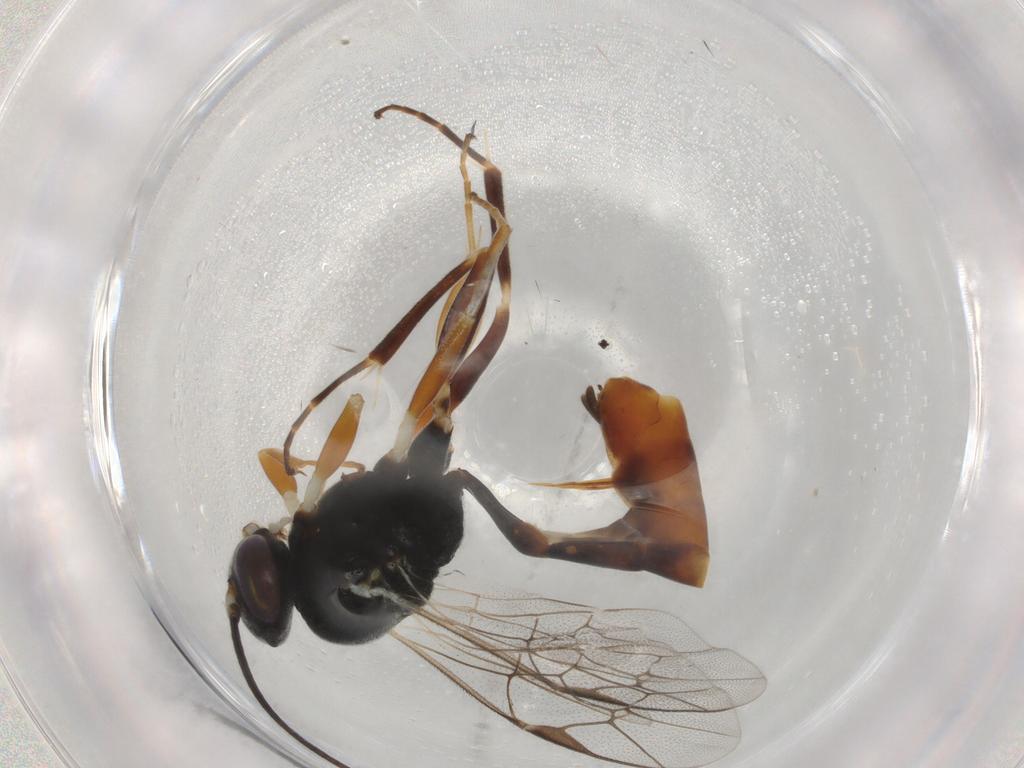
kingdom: Animalia
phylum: Arthropoda
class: Insecta
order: Hymenoptera
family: Ichneumonidae
